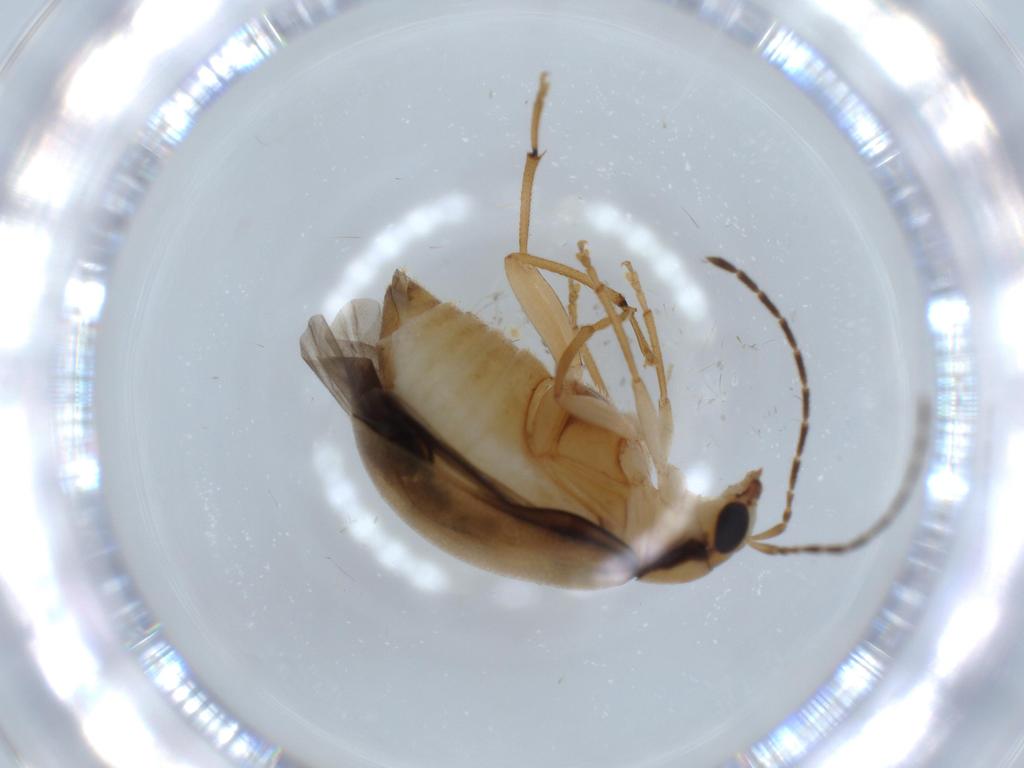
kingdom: Animalia
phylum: Arthropoda
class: Insecta
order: Coleoptera
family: Chrysomelidae
